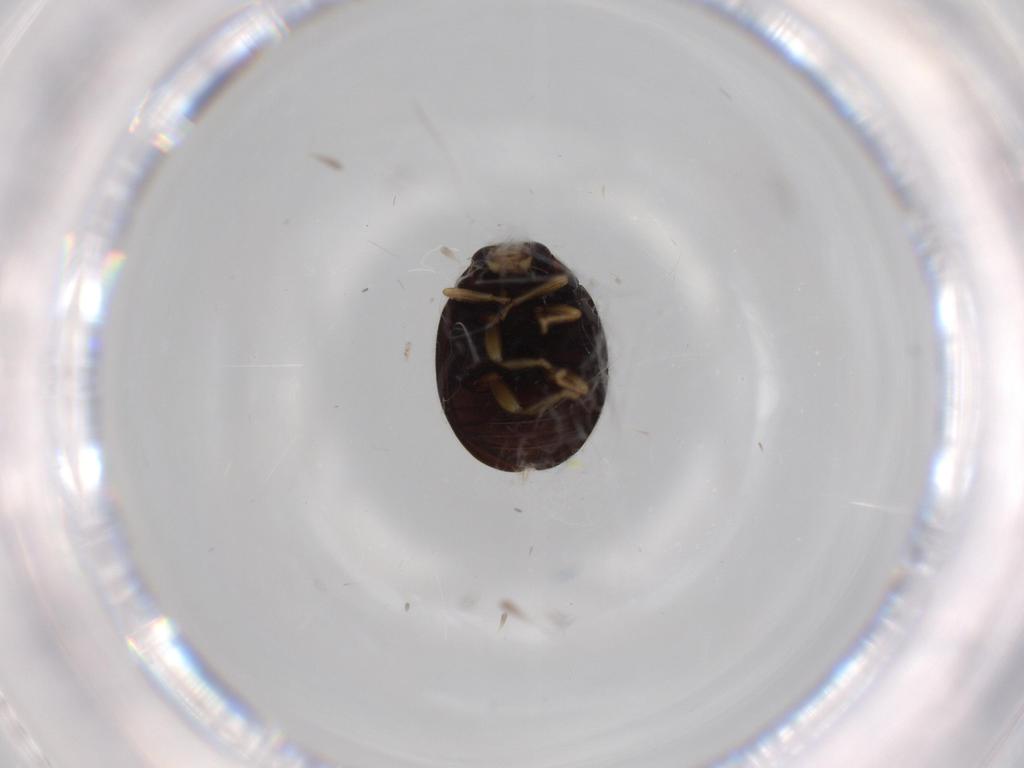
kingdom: Animalia
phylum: Arthropoda
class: Insecta
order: Coleoptera
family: Coccinellidae
